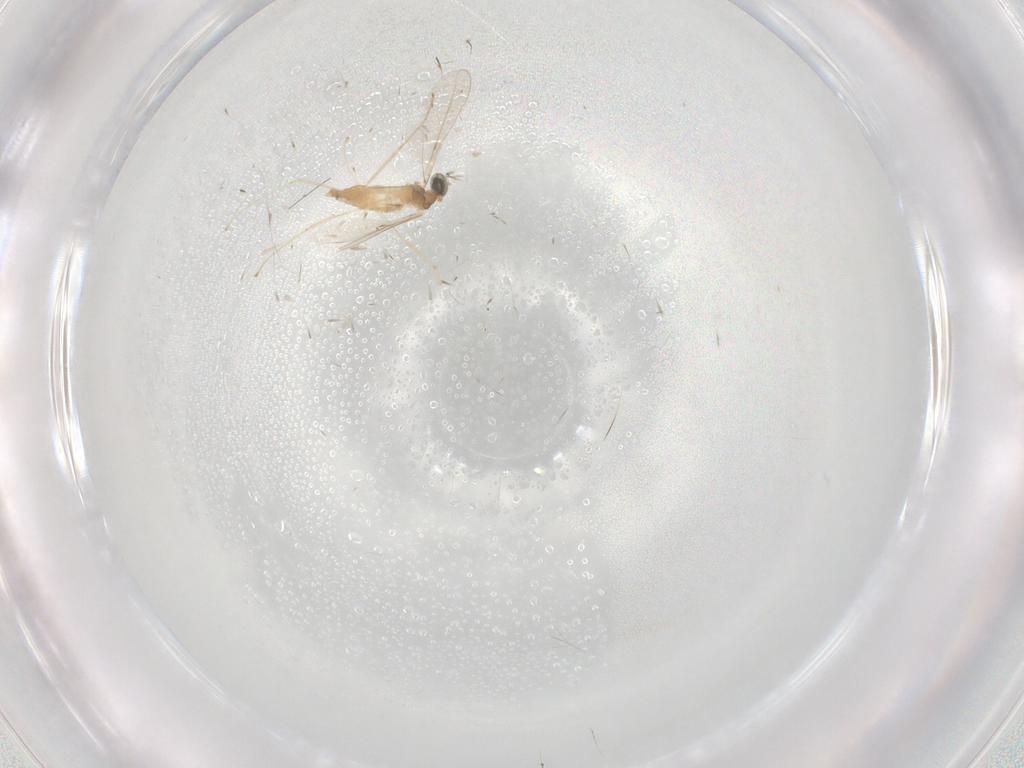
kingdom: Animalia
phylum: Arthropoda
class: Insecta
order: Diptera
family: Cecidomyiidae
